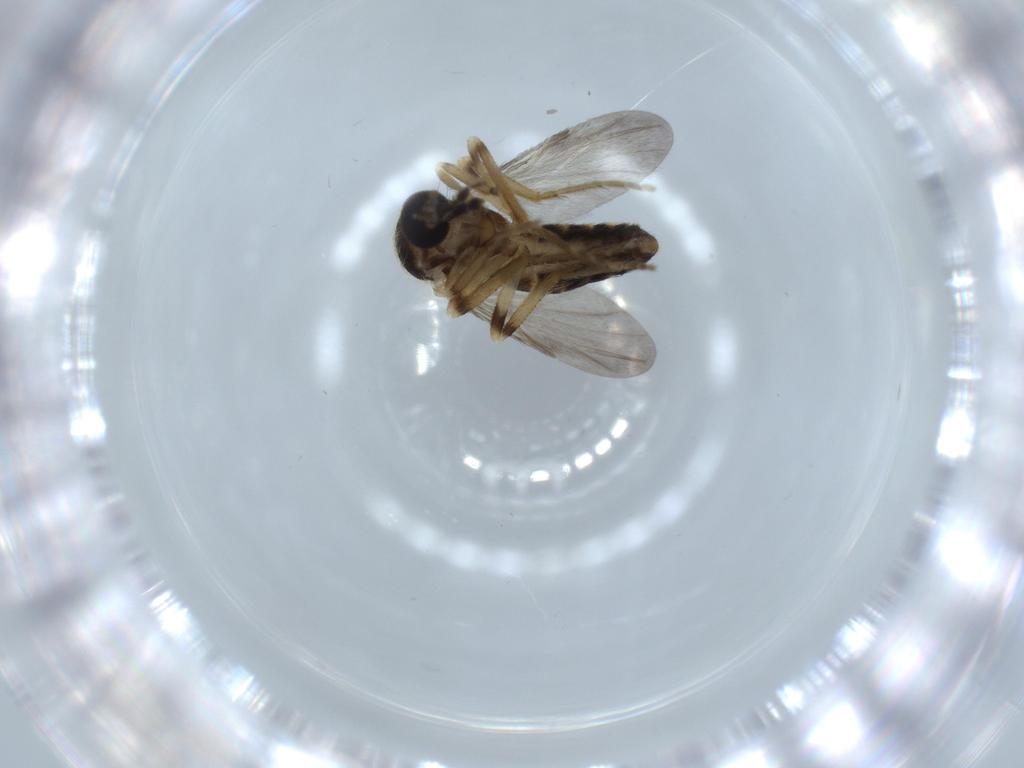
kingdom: Animalia
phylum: Arthropoda
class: Insecta
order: Diptera
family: Ceratopogonidae
